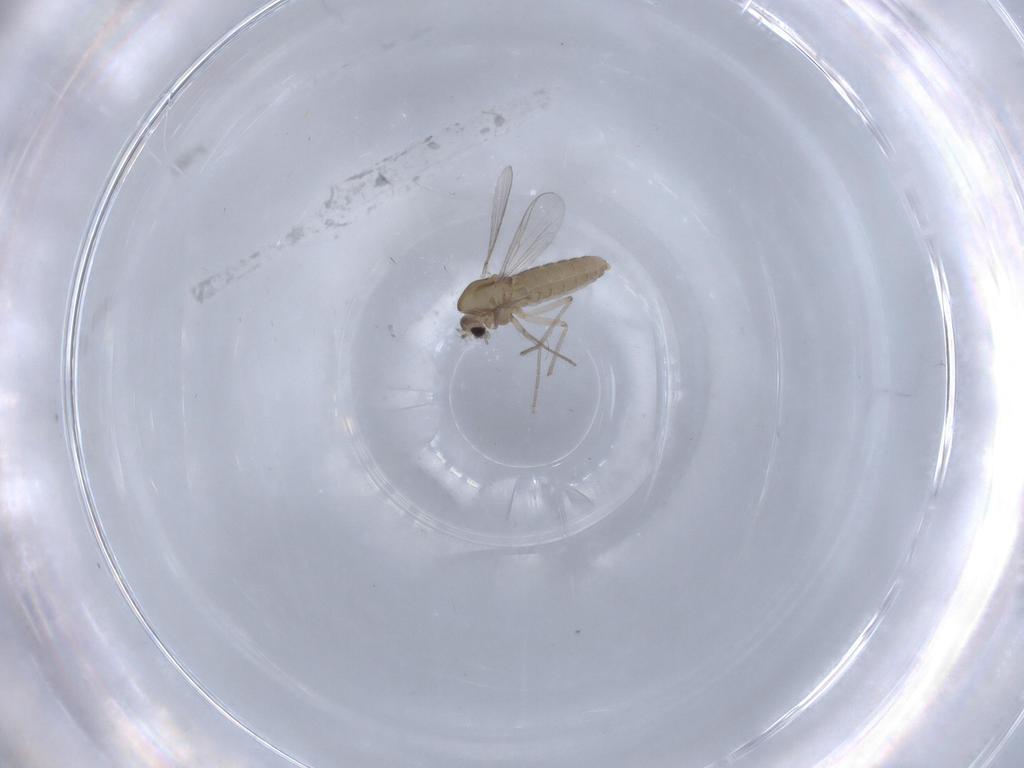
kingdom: Animalia
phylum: Arthropoda
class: Insecta
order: Diptera
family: Chironomidae
